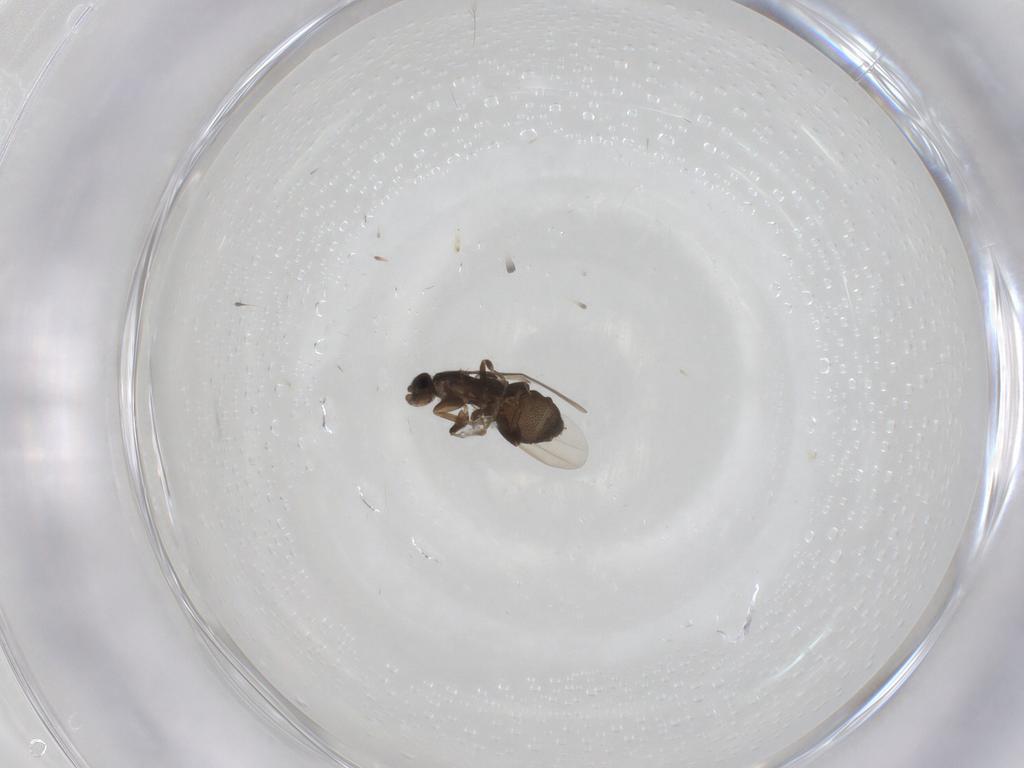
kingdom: Animalia
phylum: Arthropoda
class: Insecta
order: Diptera
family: Phoridae
